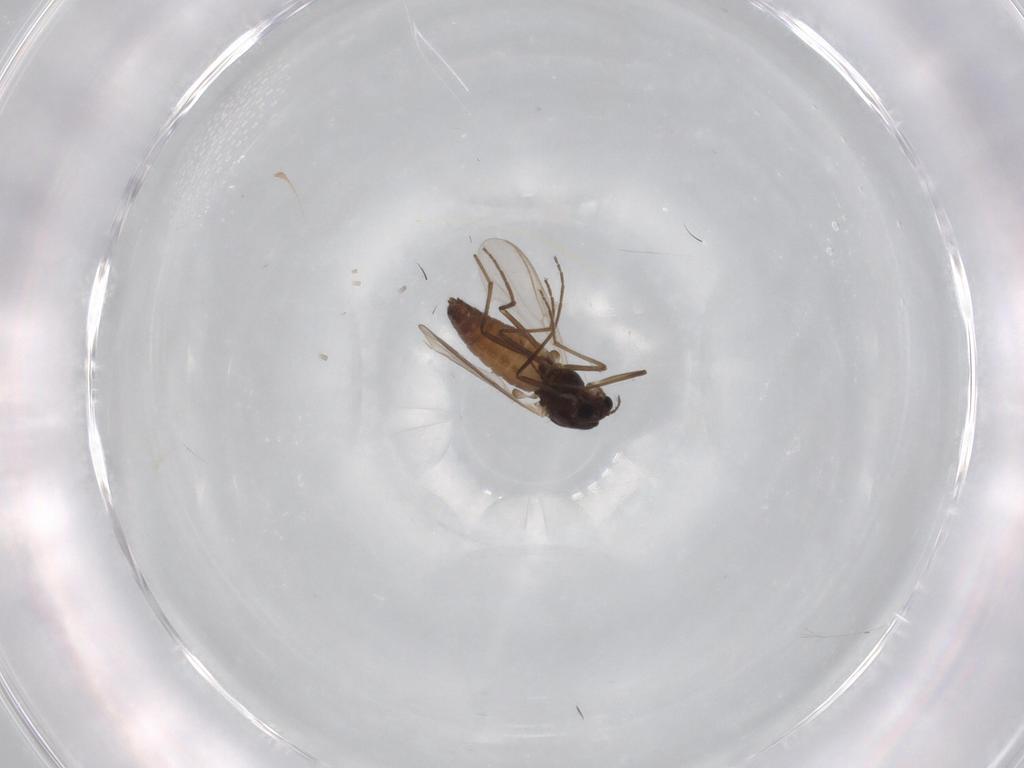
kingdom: Animalia
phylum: Arthropoda
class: Insecta
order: Diptera
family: Chironomidae
